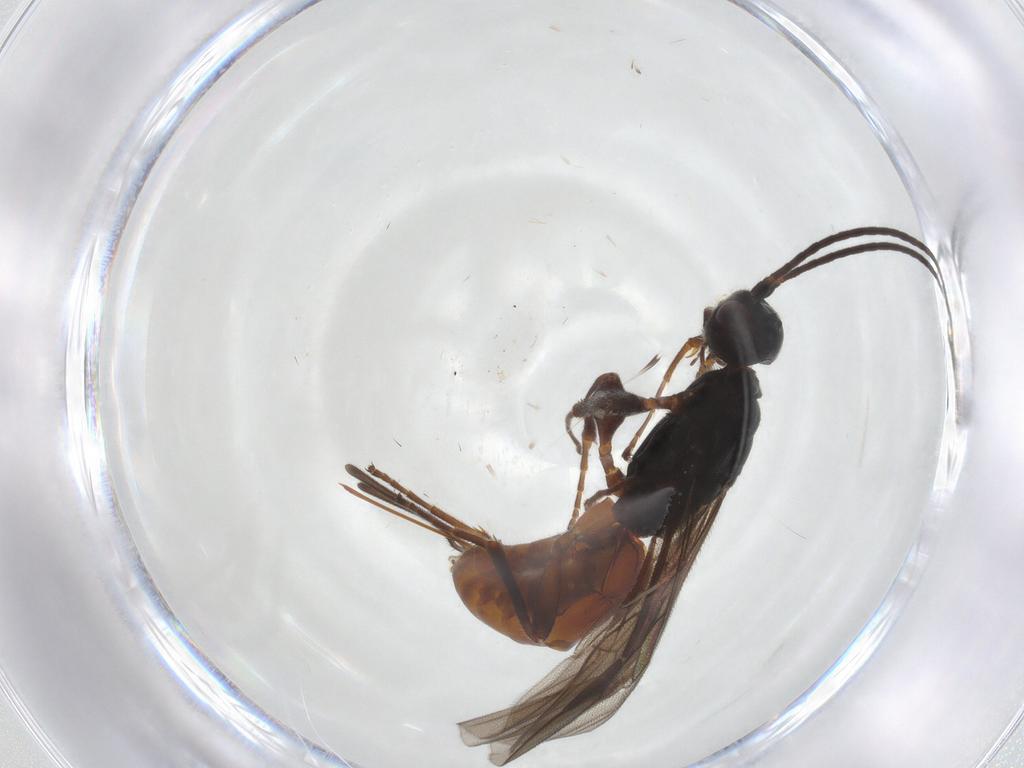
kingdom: Animalia
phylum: Arthropoda
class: Insecta
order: Hymenoptera
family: Braconidae
